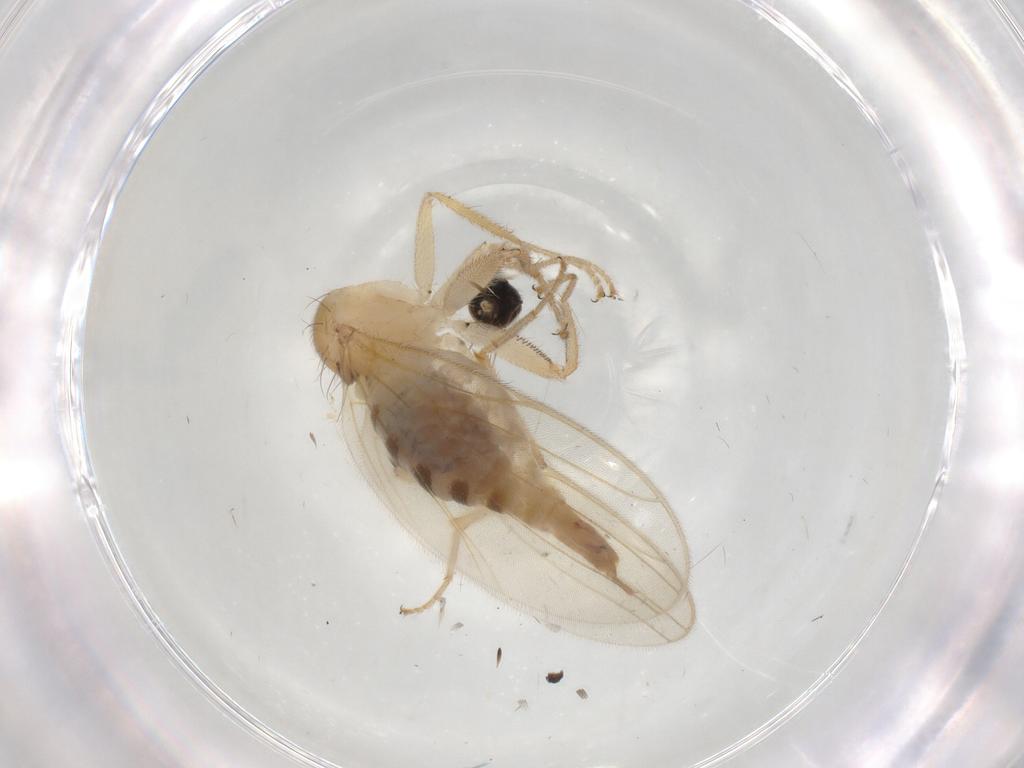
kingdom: Animalia
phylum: Arthropoda
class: Insecta
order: Diptera
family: Hybotidae
